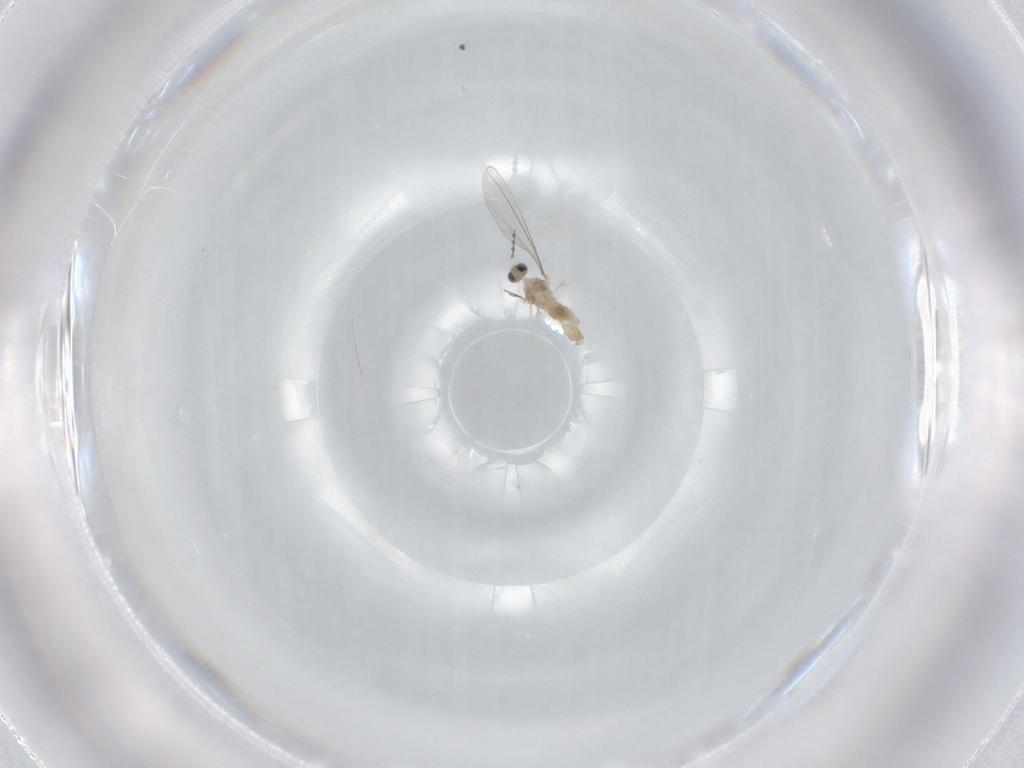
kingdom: Animalia
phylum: Arthropoda
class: Insecta
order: Diptera
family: Cecidomyiidae
